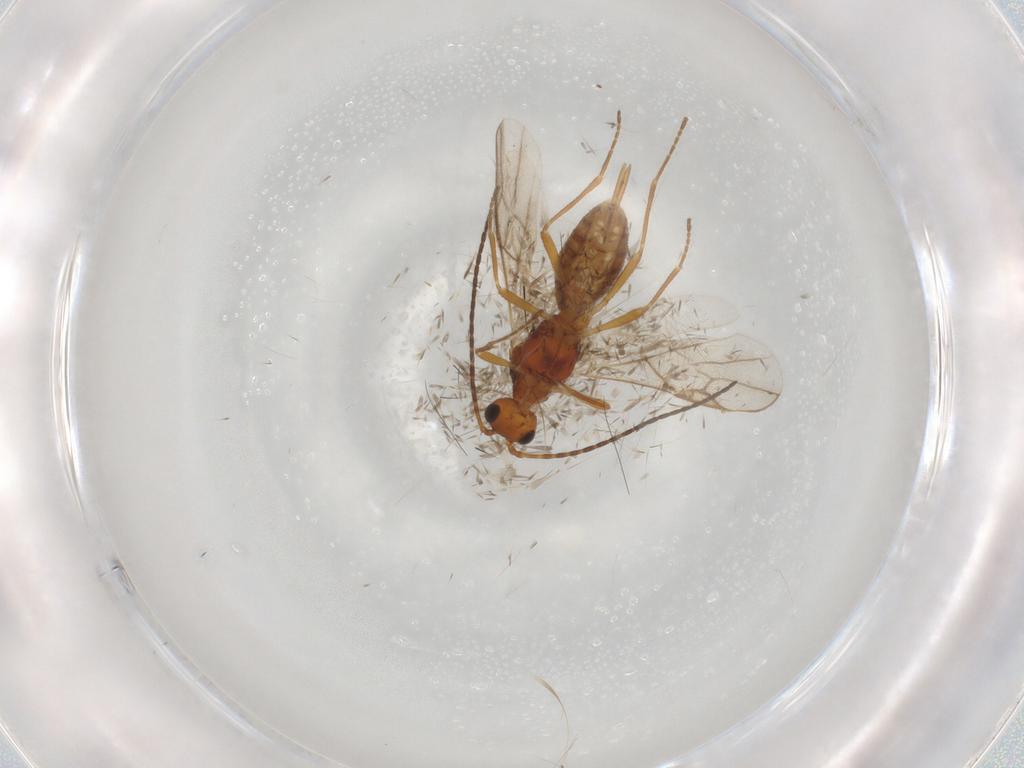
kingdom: Animalia
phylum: Arthropoda
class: Insecta
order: Hymenoptera
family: Braconidae
